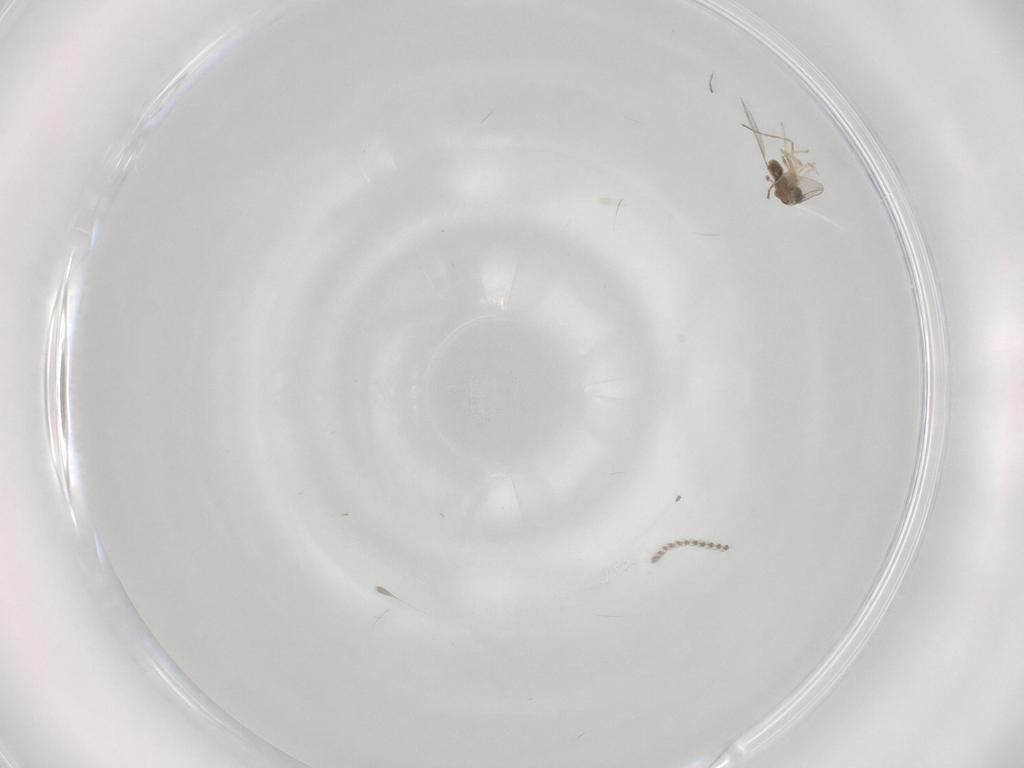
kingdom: Animalia
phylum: Arthropoda
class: Insecta
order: Diptera
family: Cecidomyiidae
